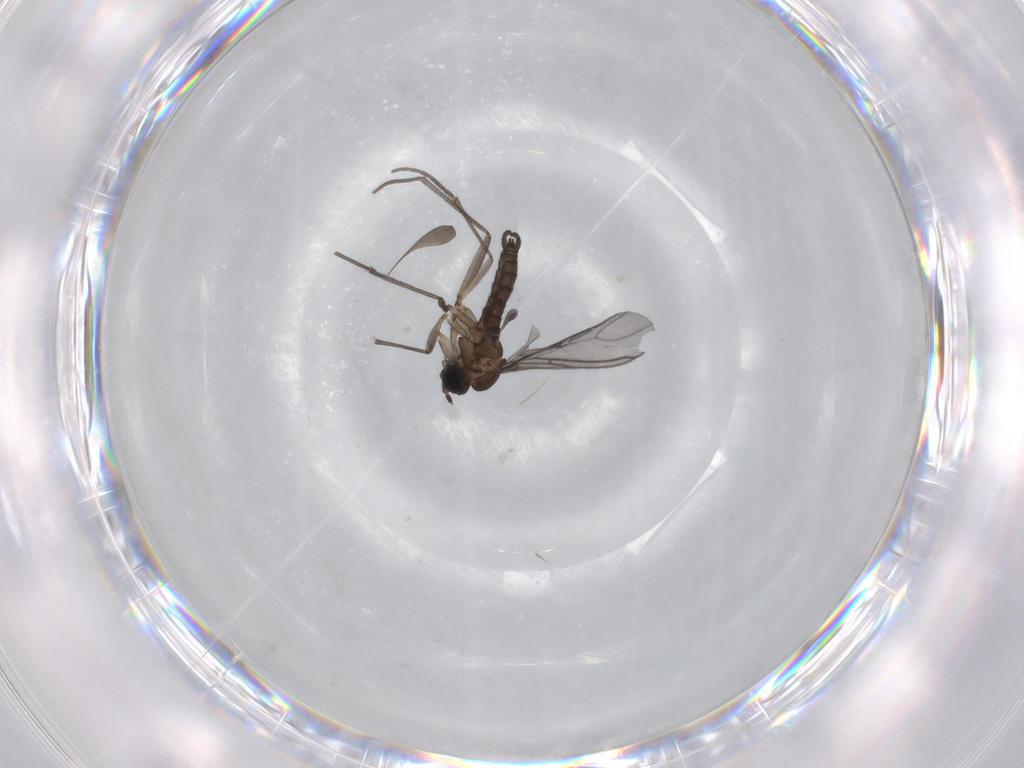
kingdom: Animalia
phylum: Arthropoda
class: Insecta
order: Diptera
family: Sciaridae
